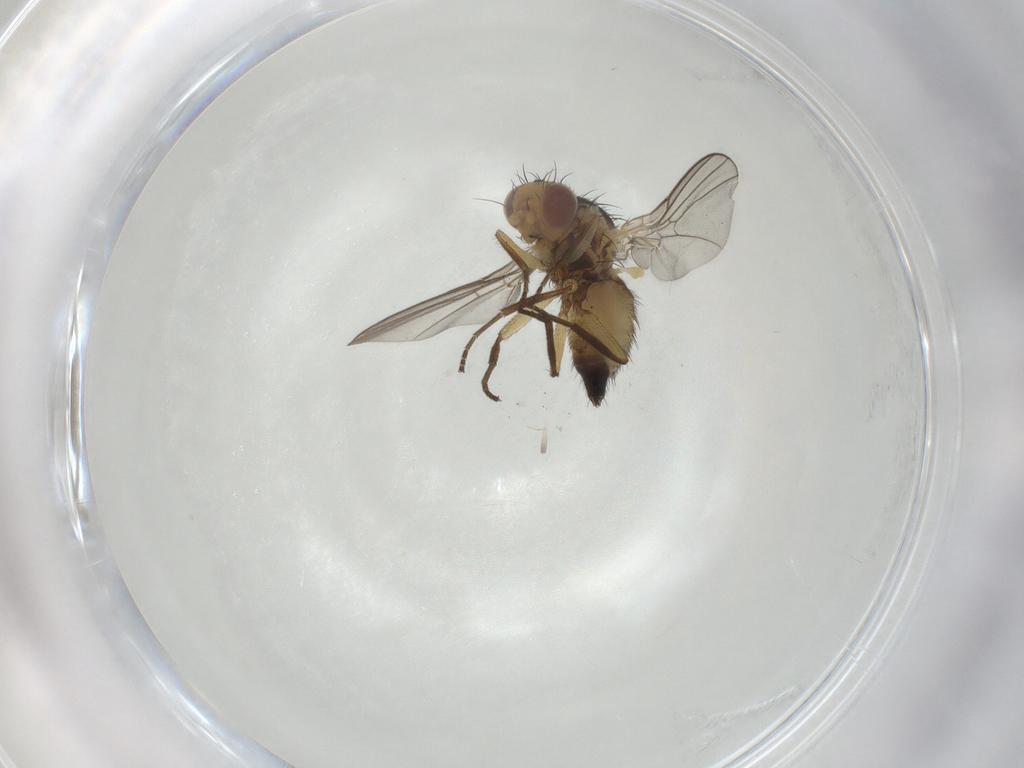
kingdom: Animalia
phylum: Arthropoda
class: Insecta
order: Diptera
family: Agromyzidae
